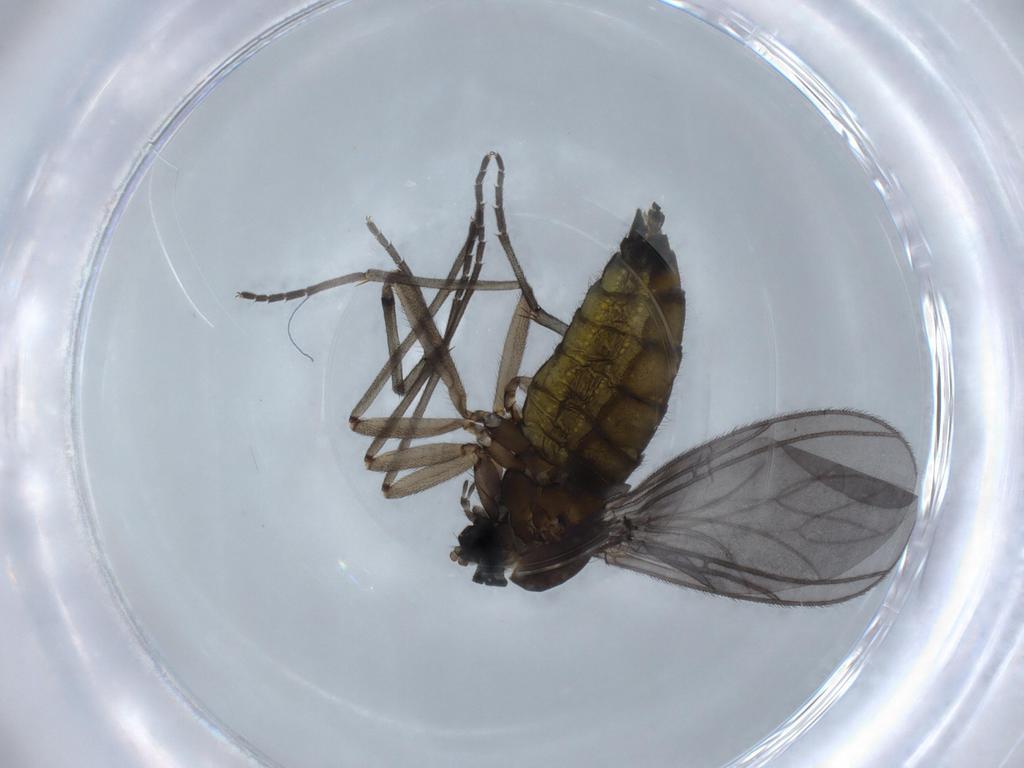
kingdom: Animalia
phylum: Arthropoda
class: Insecta
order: Diptera
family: Sciaridae
